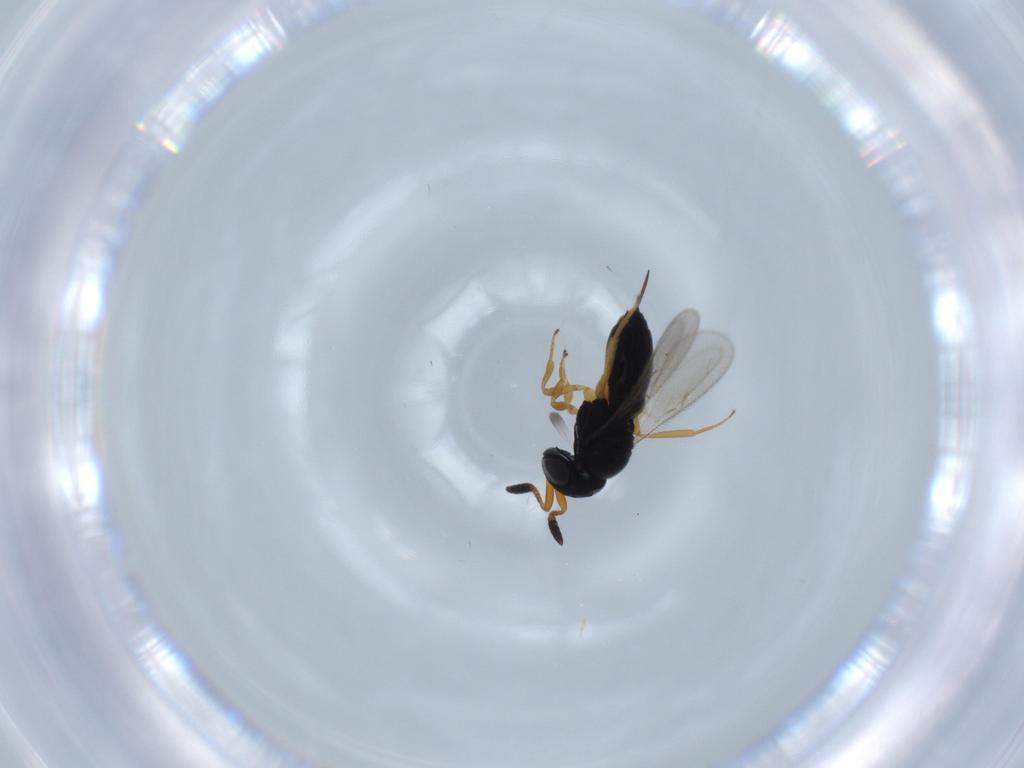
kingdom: Animalia
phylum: Arthropoda
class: Insecta
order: Hymenoptera
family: Scelionidae
